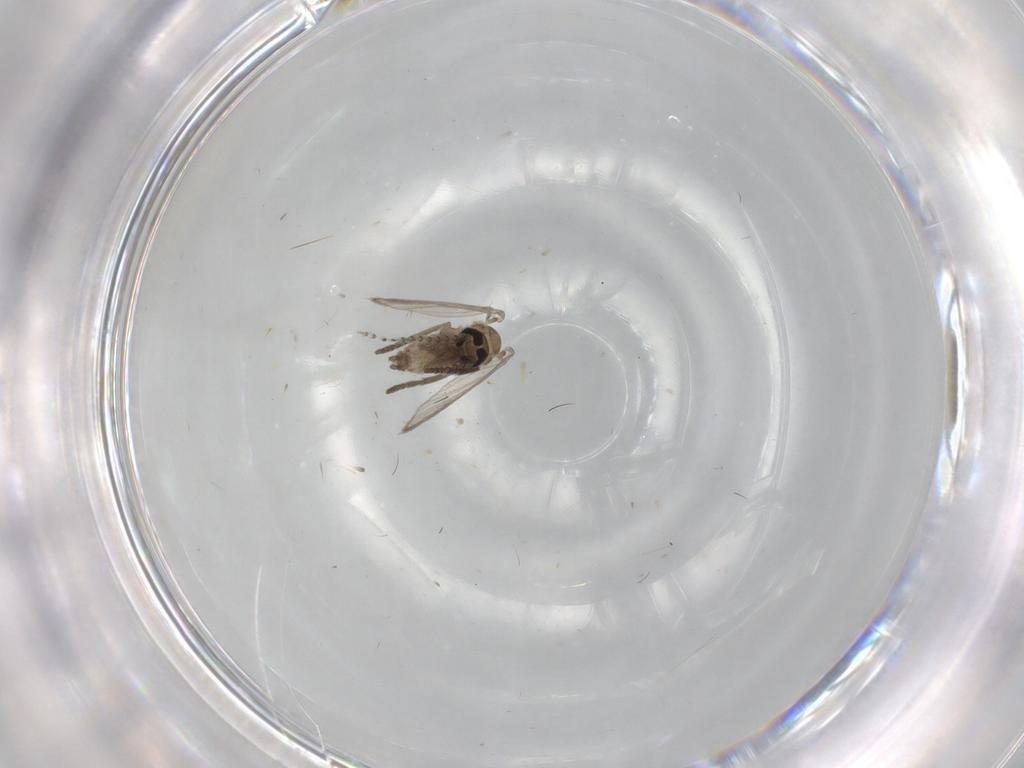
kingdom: Animalia
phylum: Arthropoda
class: Insecta
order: Diptera
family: Psychodidae
